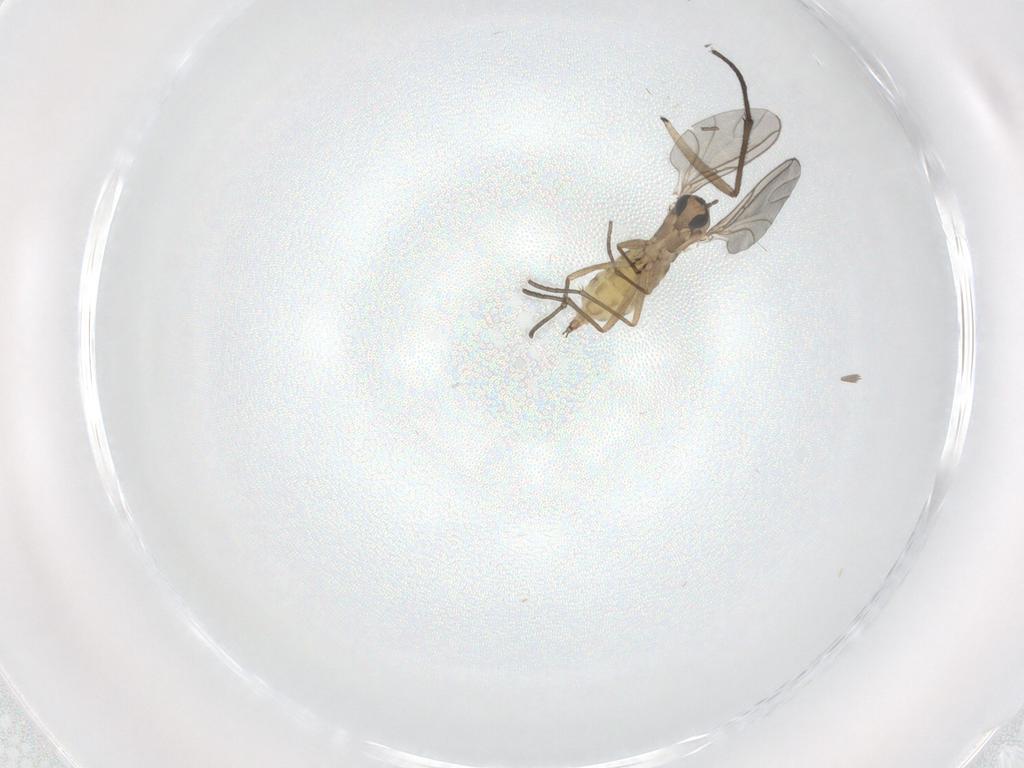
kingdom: Animalia
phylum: Arthropoda
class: Insecta
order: Diptera
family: Sciaridae
